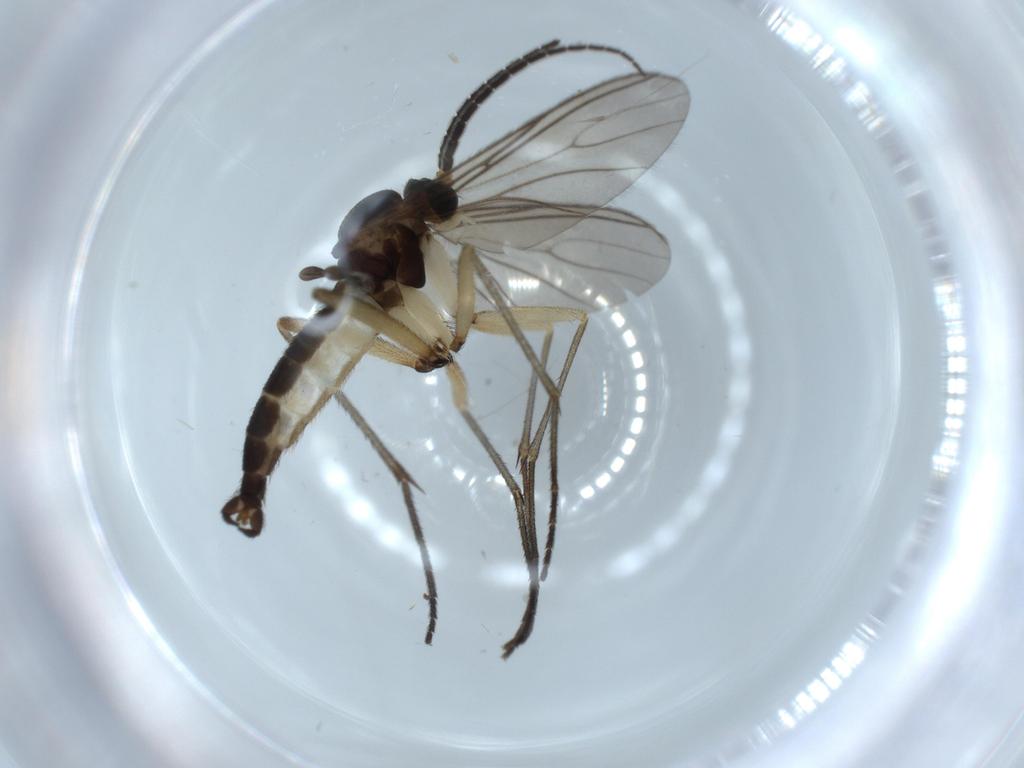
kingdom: Animalia
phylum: Arthropoda
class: Insecta
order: Diptera
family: Sciaridae
